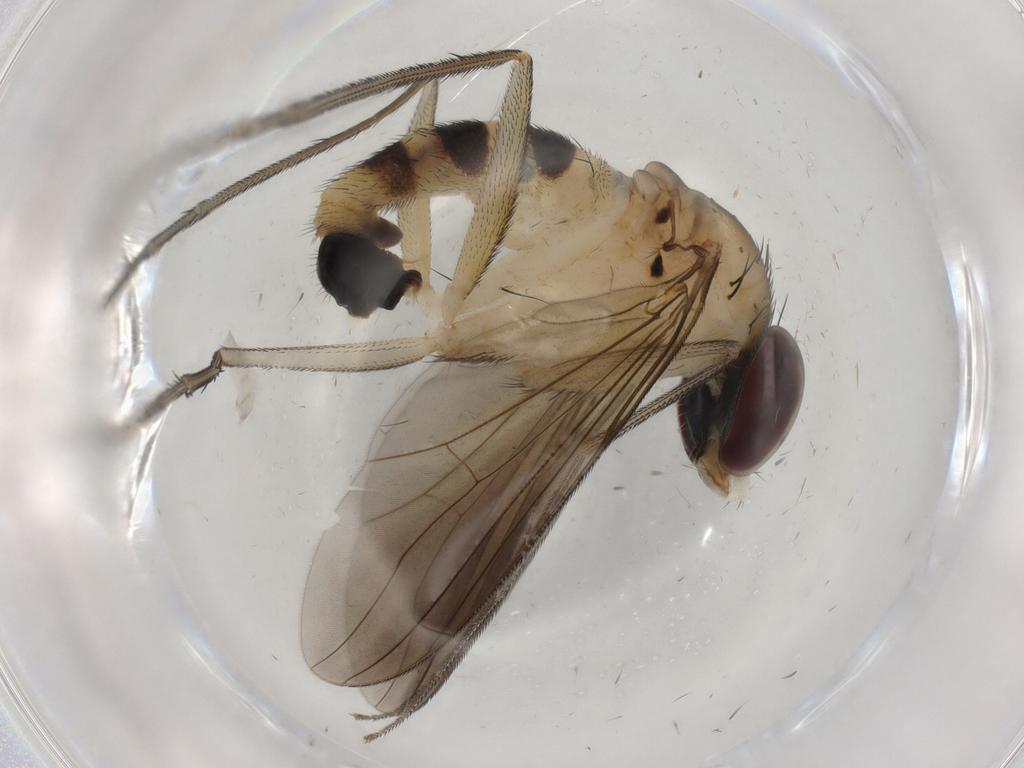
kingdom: Animalia
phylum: Arthropoda
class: Insecta
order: Diptera
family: Dolichopodidae
